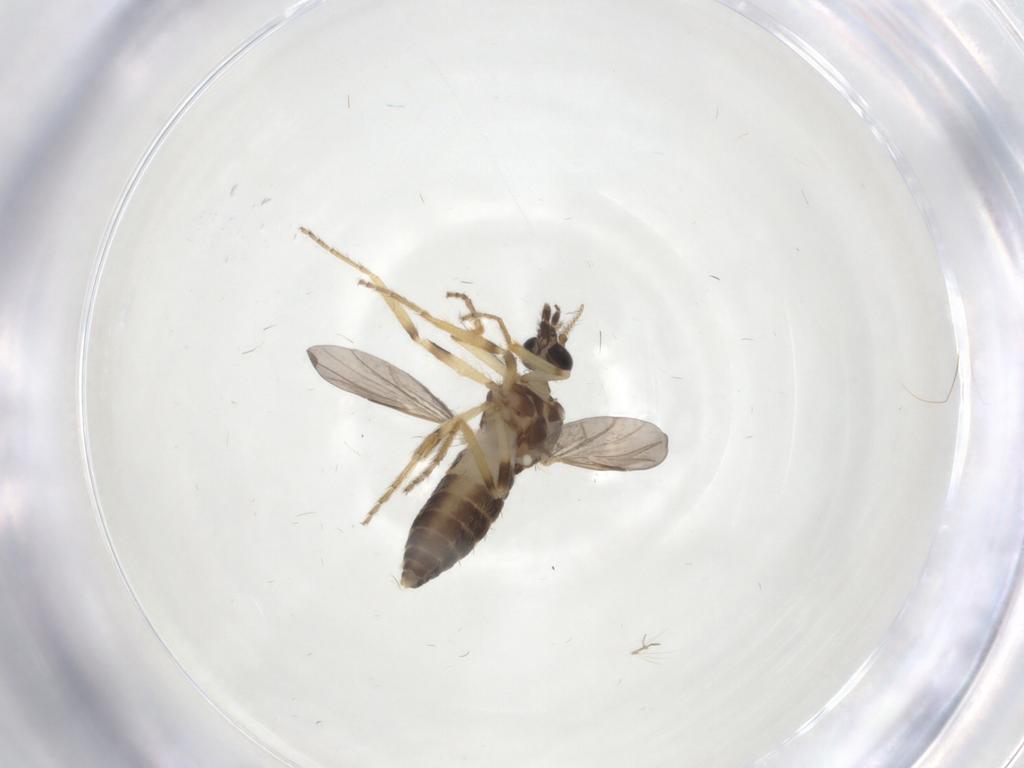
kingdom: Animalia
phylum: Arthropoda
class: Insecta
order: Diptera
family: Ceratopogonidae
